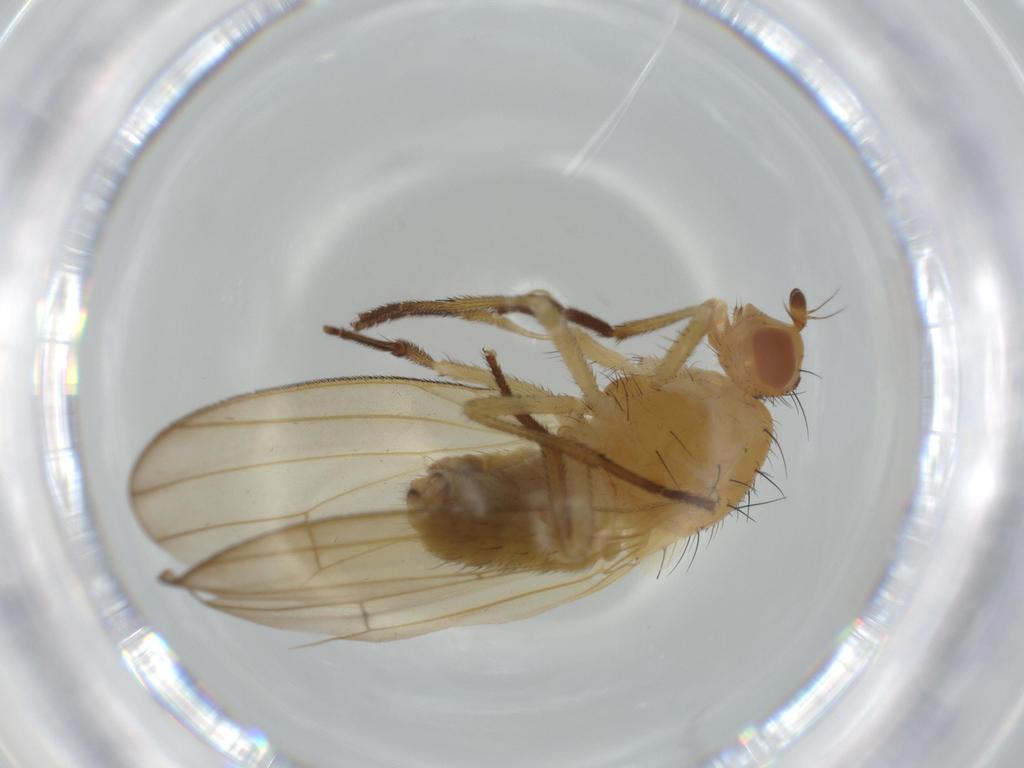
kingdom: Animalia
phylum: Arthropoda
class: Insecta
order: Diptera
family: Lauxaniidae
